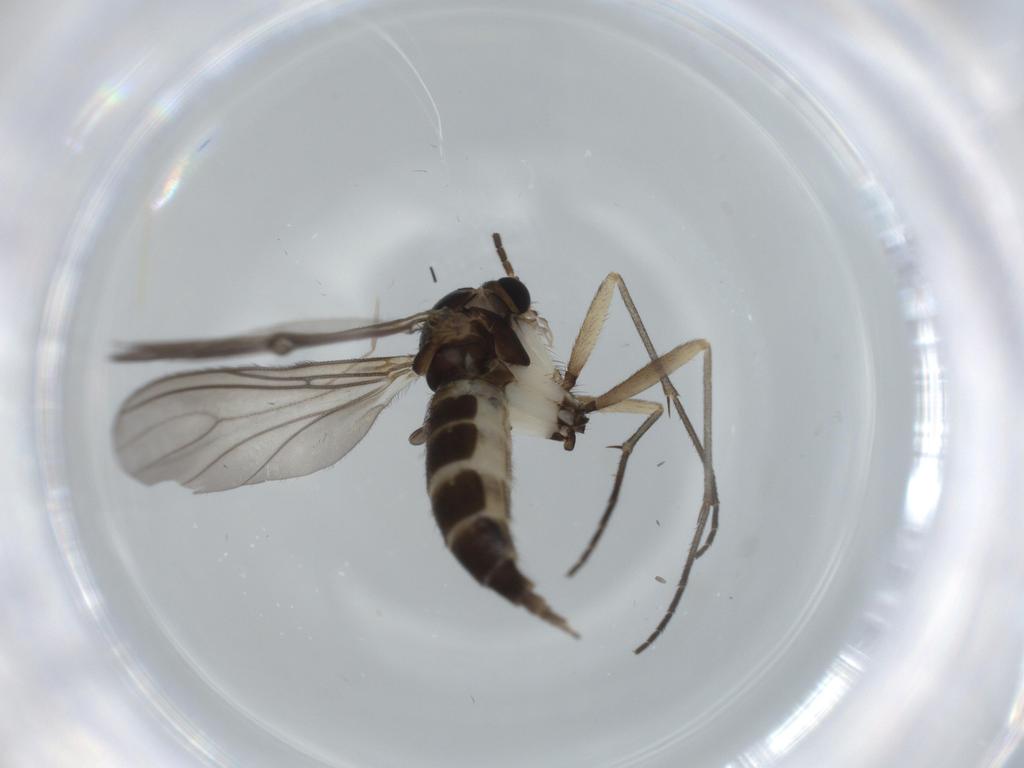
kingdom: Animalia
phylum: Arthropoda
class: Insecta
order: Diptera
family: Sciaridae
